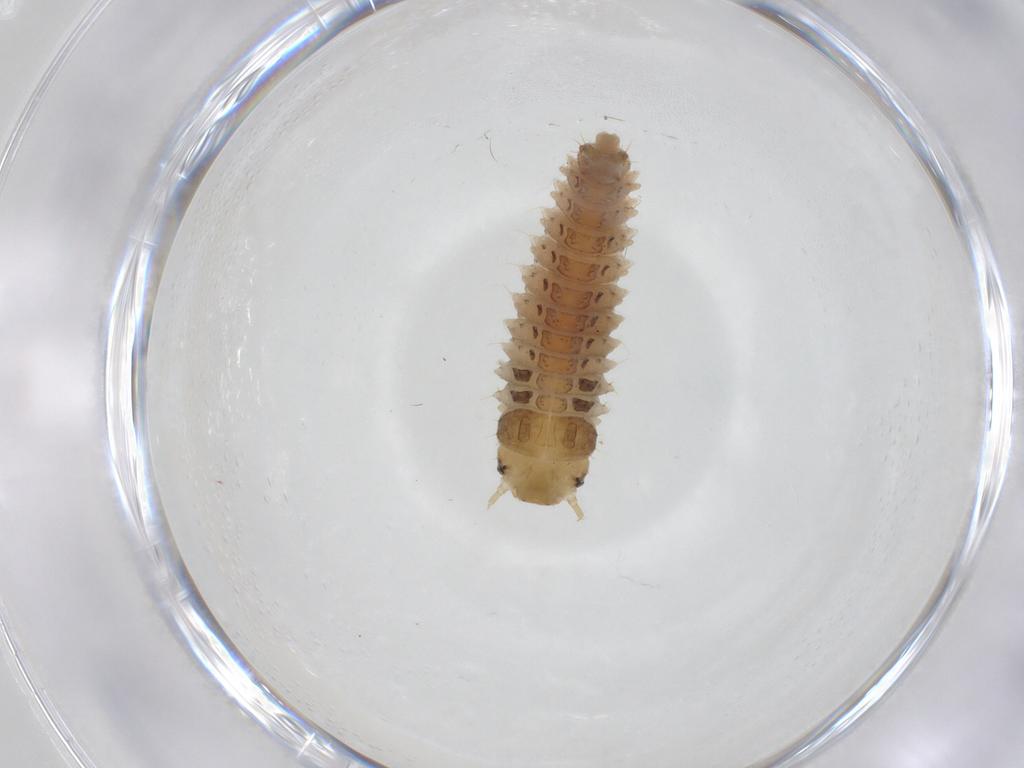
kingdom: Animalia
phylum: Arthropoda
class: Insecta
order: Coleoptera
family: Nitidulidae
